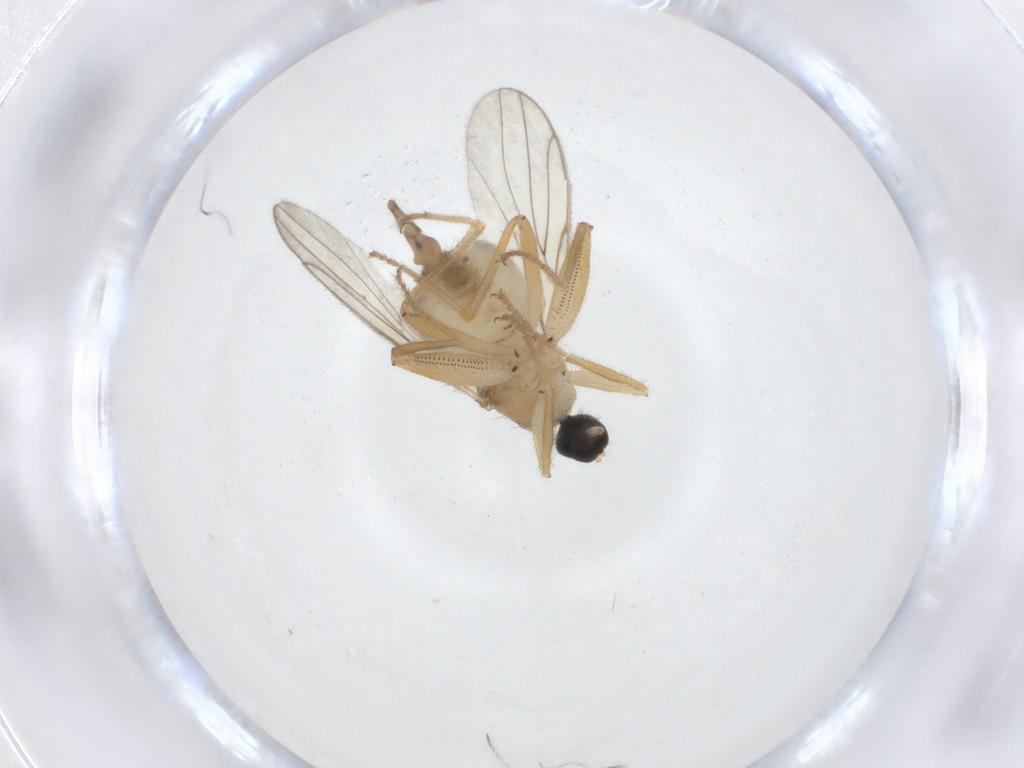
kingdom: Animalia
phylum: Arthropoda
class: Insecta
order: Diptera
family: Hybotidae
